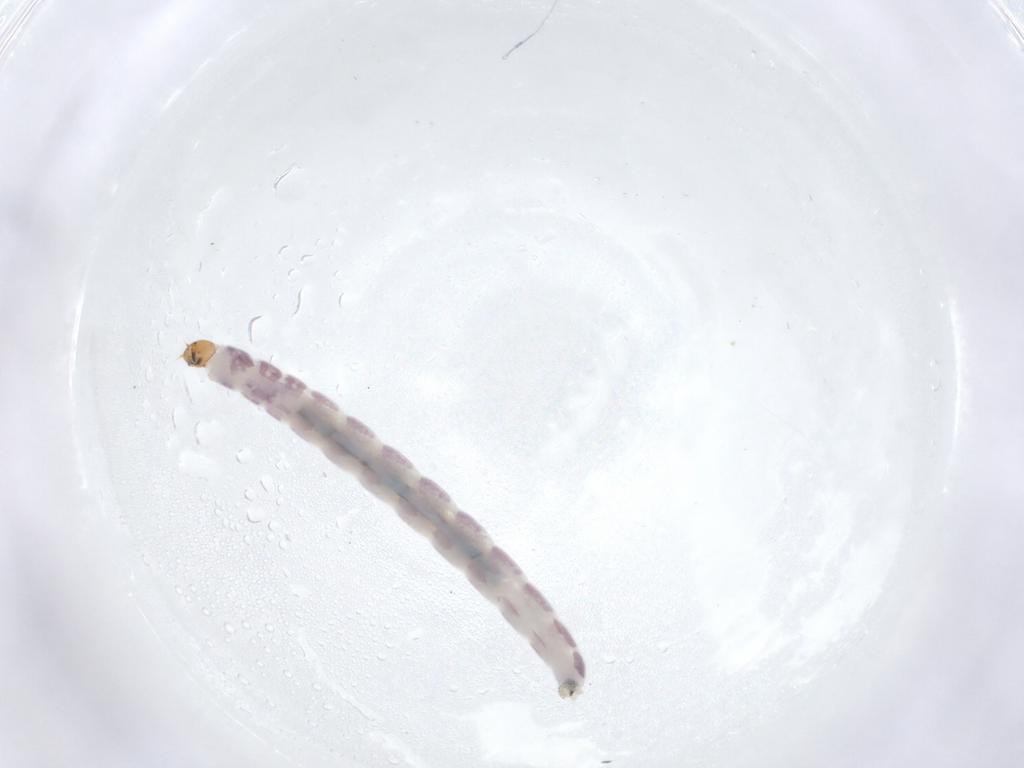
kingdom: Animalia
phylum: Arthropoda
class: Insecta
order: Diptera
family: Chironomidae
